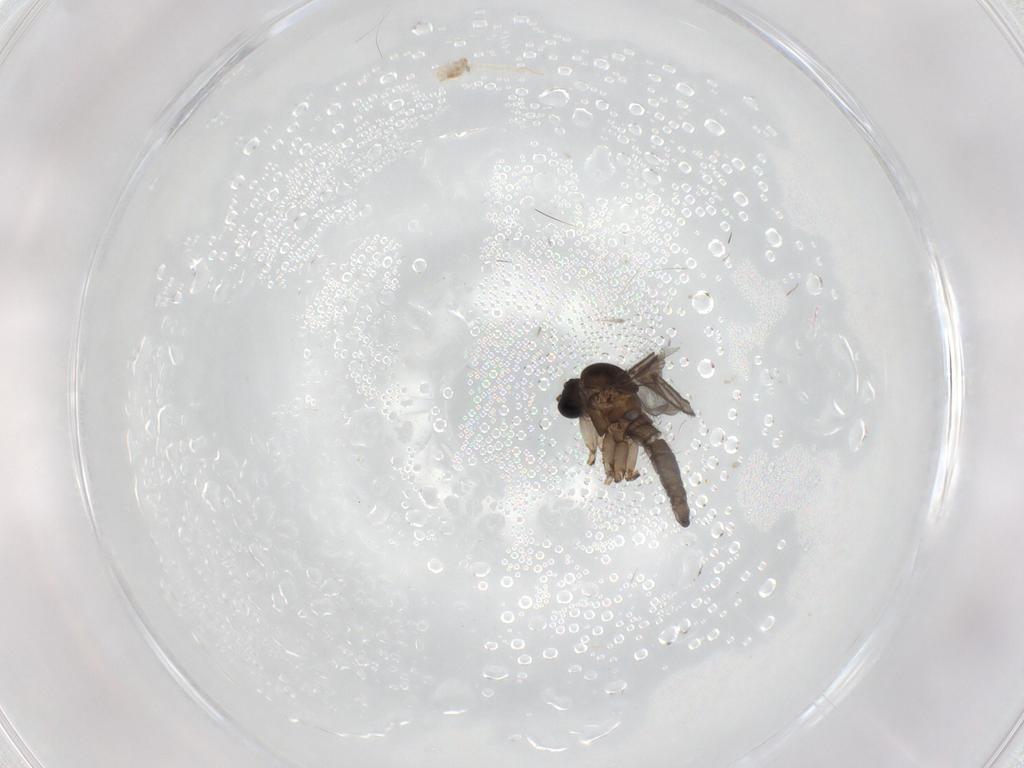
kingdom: Animalia
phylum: Arthropoda
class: Insecta
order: Diptera
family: Sciaridae
